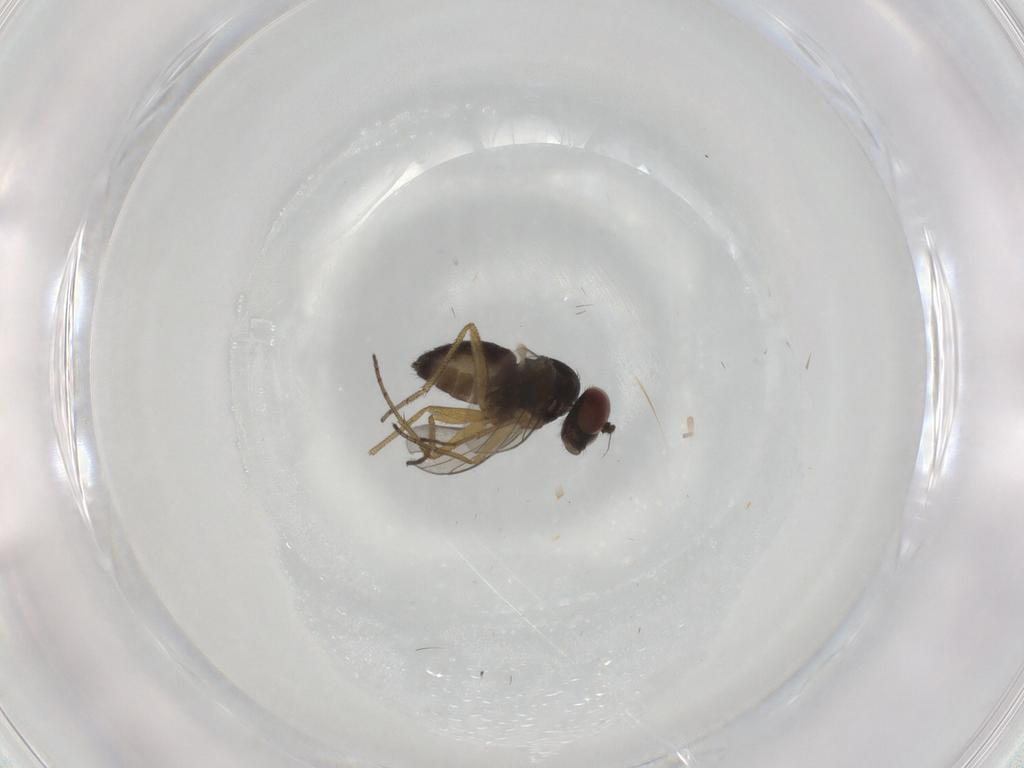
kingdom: Animalia
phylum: Arthropoda
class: Insecta
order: Diptera
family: Dolichopodidae
